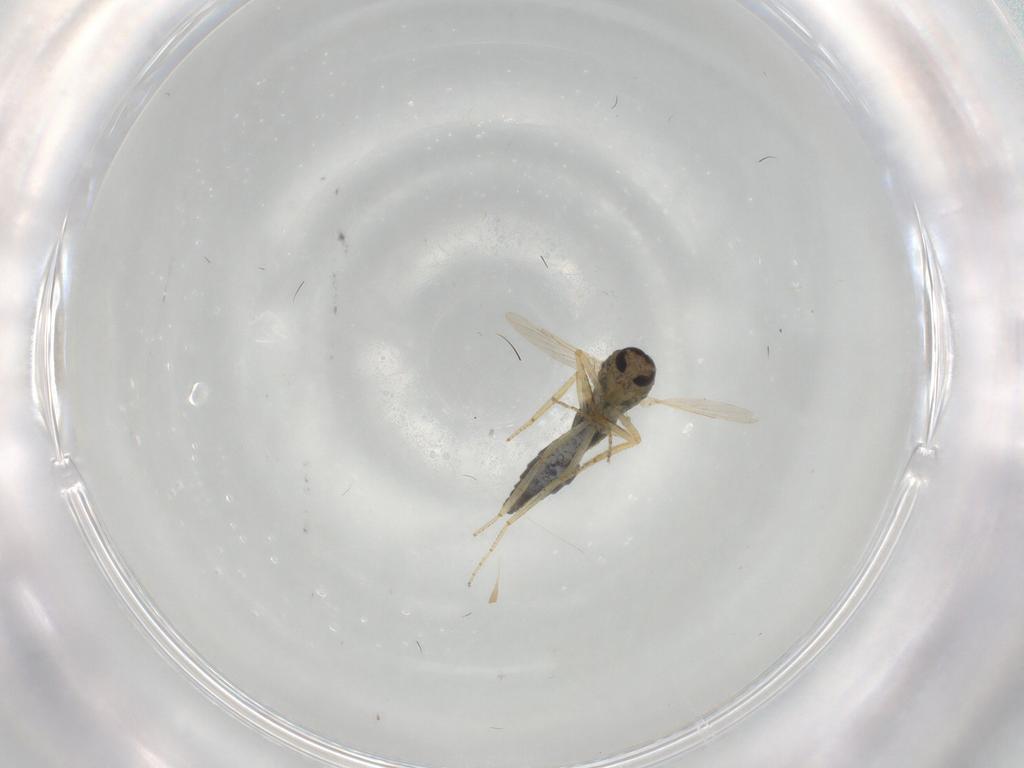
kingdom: Animalia
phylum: Arthropoda
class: Insecta
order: Diptera
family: Ceratopogonidae
